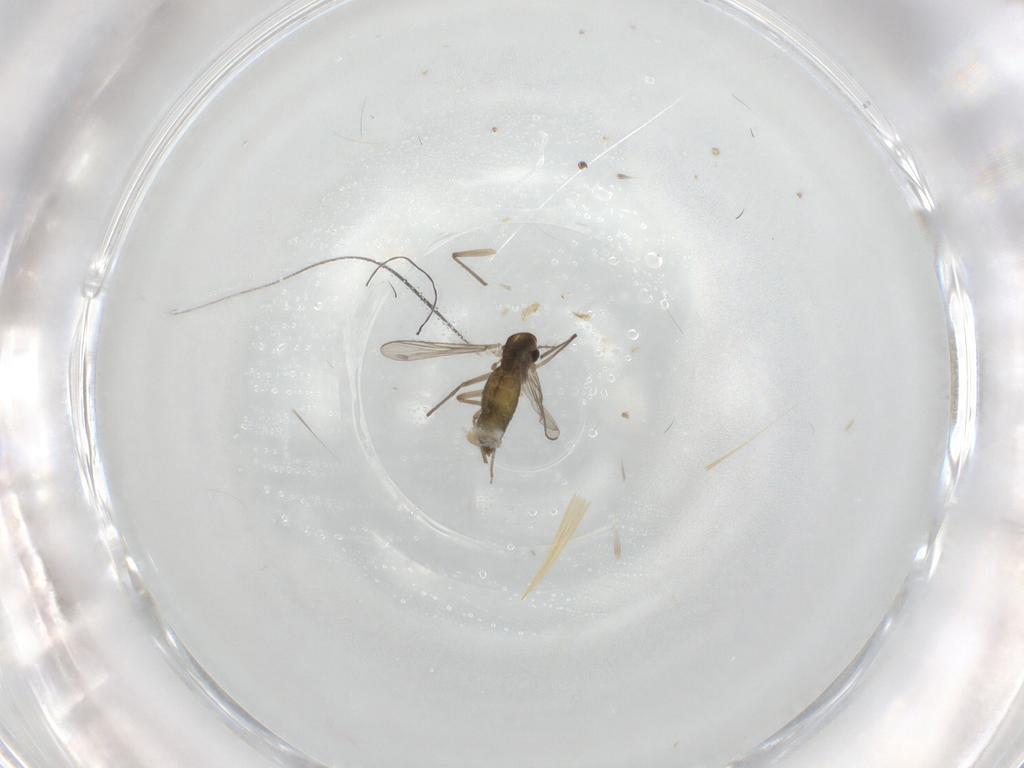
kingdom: Animalia
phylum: Arthropoda
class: Insecta
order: Diptera
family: Chironomidae
